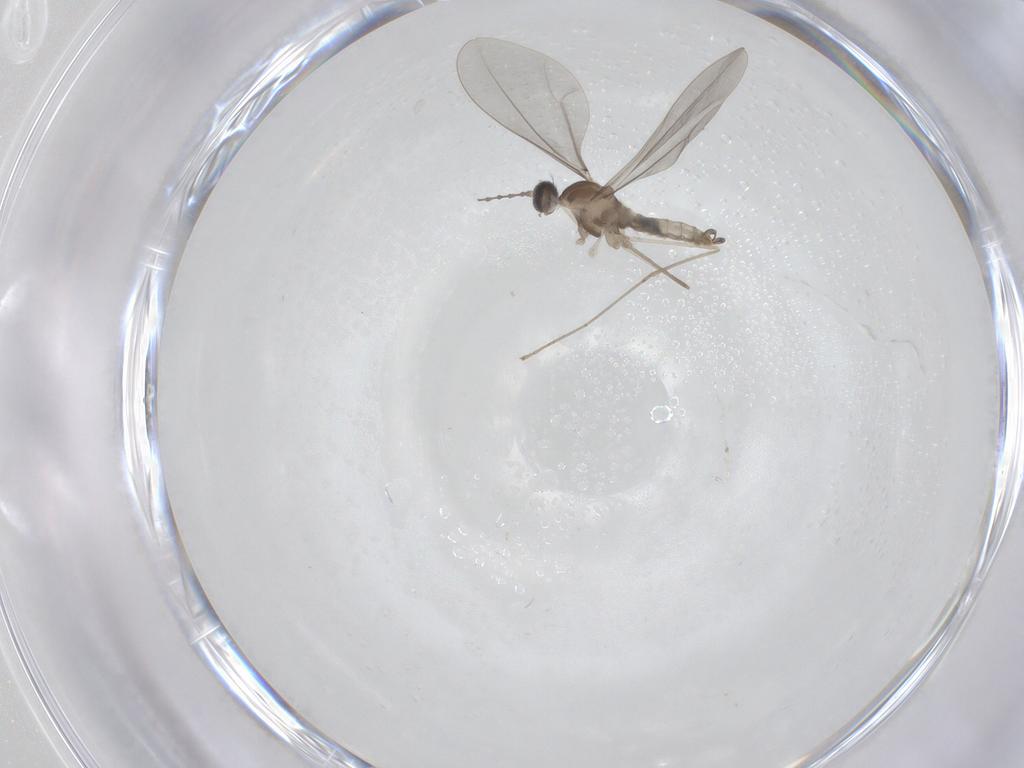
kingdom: Animalia
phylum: Arthropoda
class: Insecta
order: Diptera
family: Cecidomyiidae
